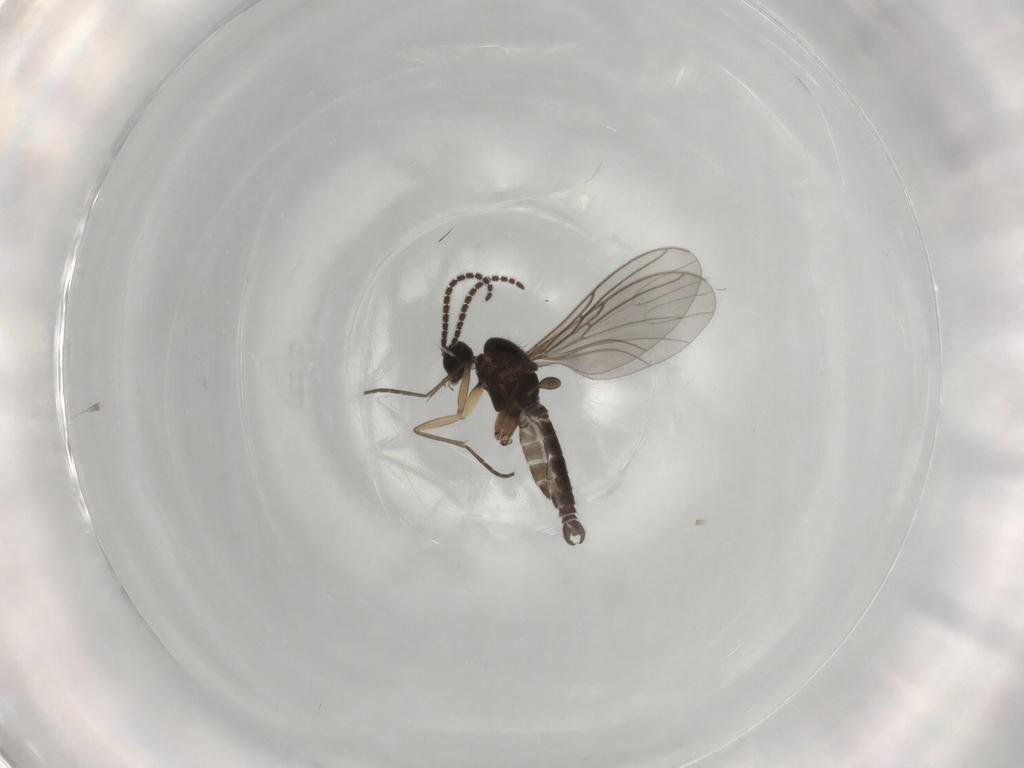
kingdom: Animalia
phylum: Arthropoda
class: Insecta
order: Diptera
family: Sciaridae
